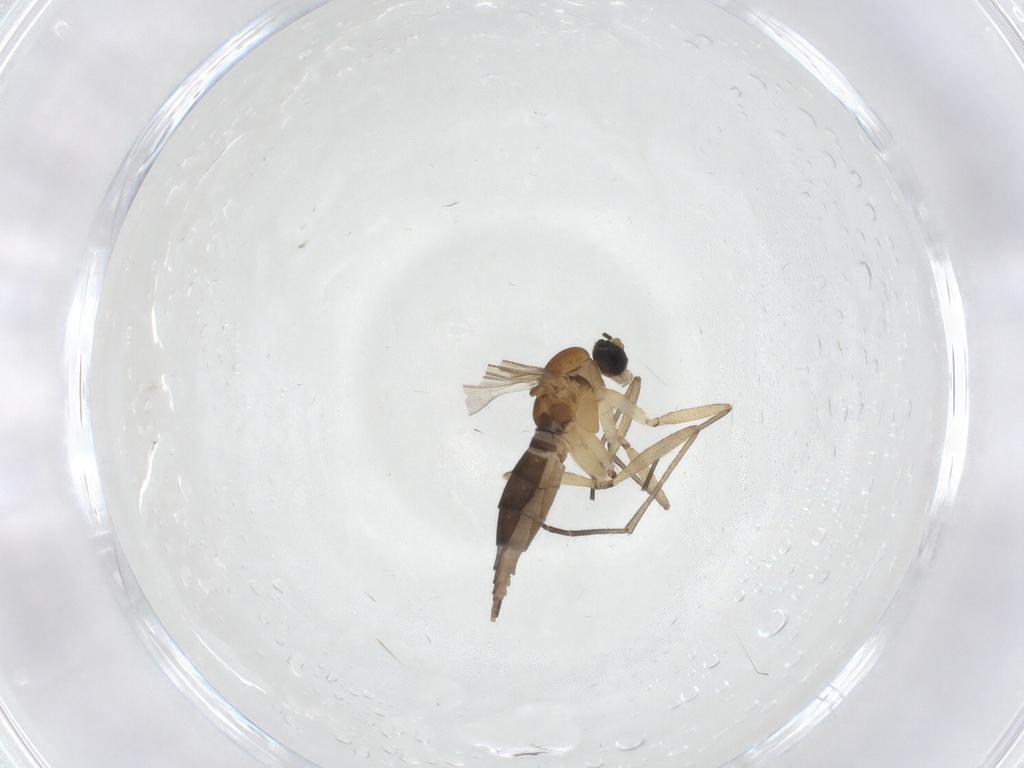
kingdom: Animalia
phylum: Arthropoda
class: Insecta
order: Diptera
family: Sciaridae
